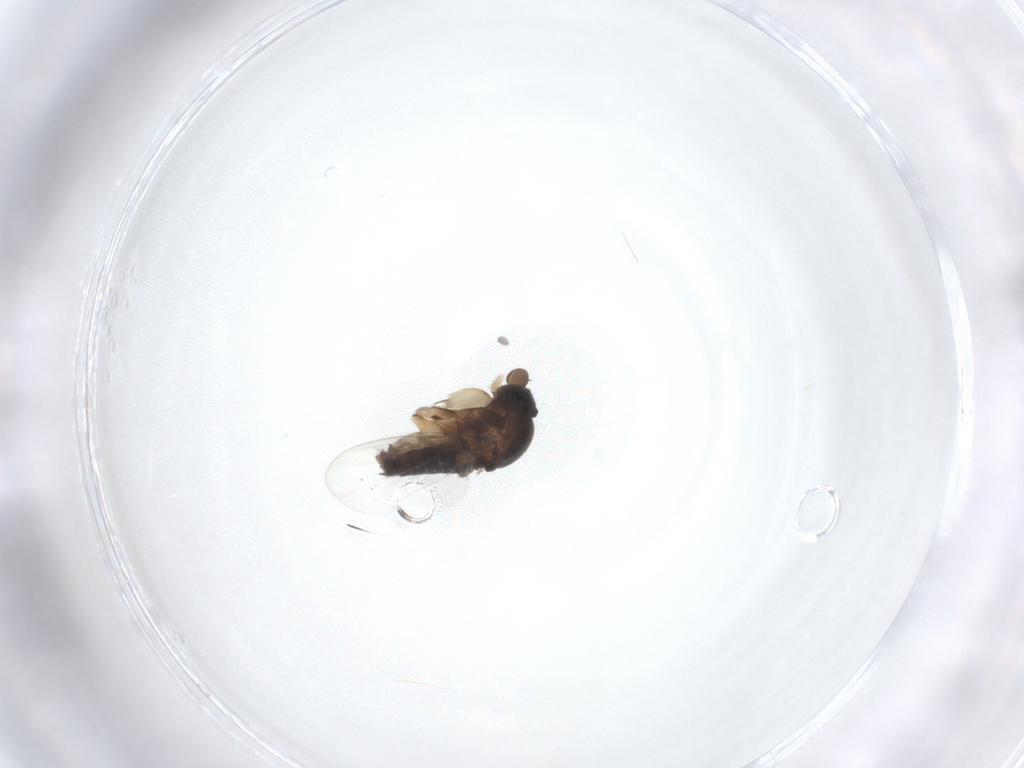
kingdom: Animalia
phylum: Arthropoda
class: Insecta
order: Diptera
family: Phoridae
